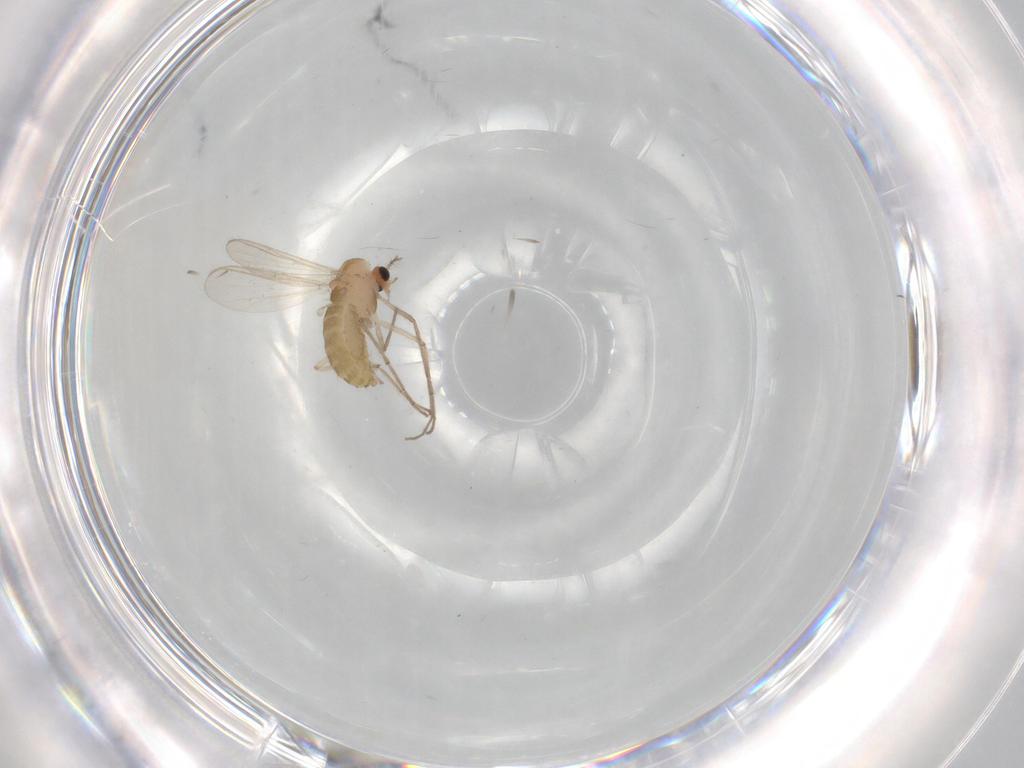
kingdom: Animalia
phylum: Arthropoda
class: Insecta
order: Diptera
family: Chironomidae
